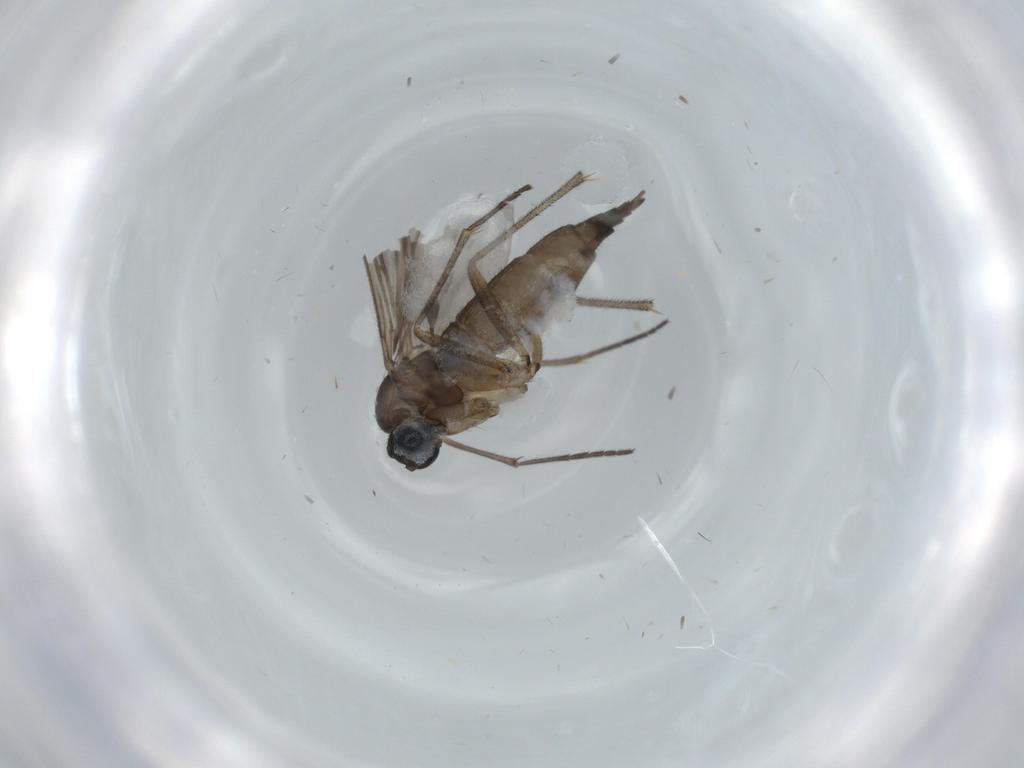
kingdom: Animalia
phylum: Arthropoda
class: Insecta
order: Diptera
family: Sciaridae
